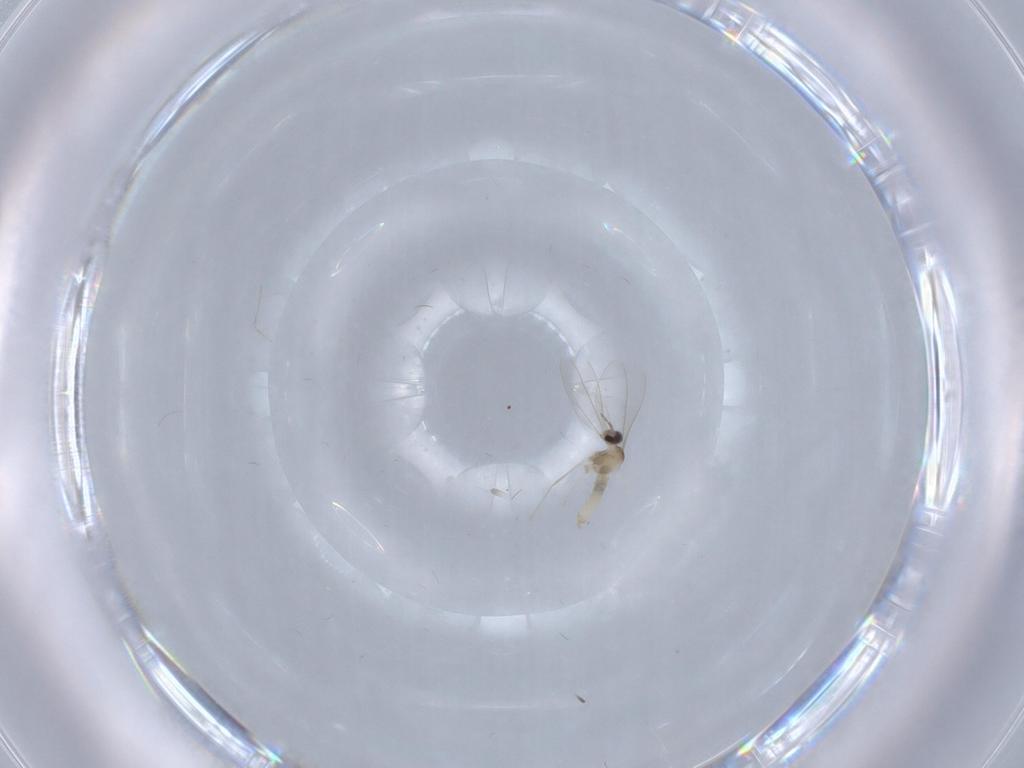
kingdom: Animalia
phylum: Arthropoda
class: Insecta
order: Diptera
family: Cecidomyiidae
